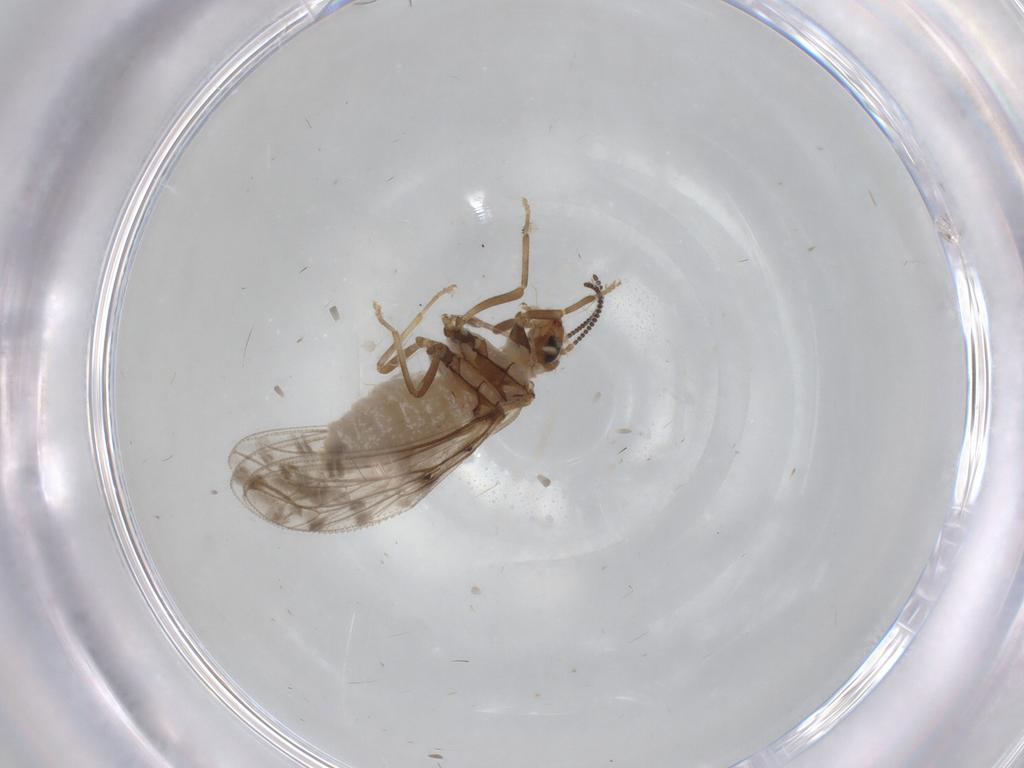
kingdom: Animalia
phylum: Arthropoda
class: Insecta
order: Neuroptera
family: Coniopterygidae
